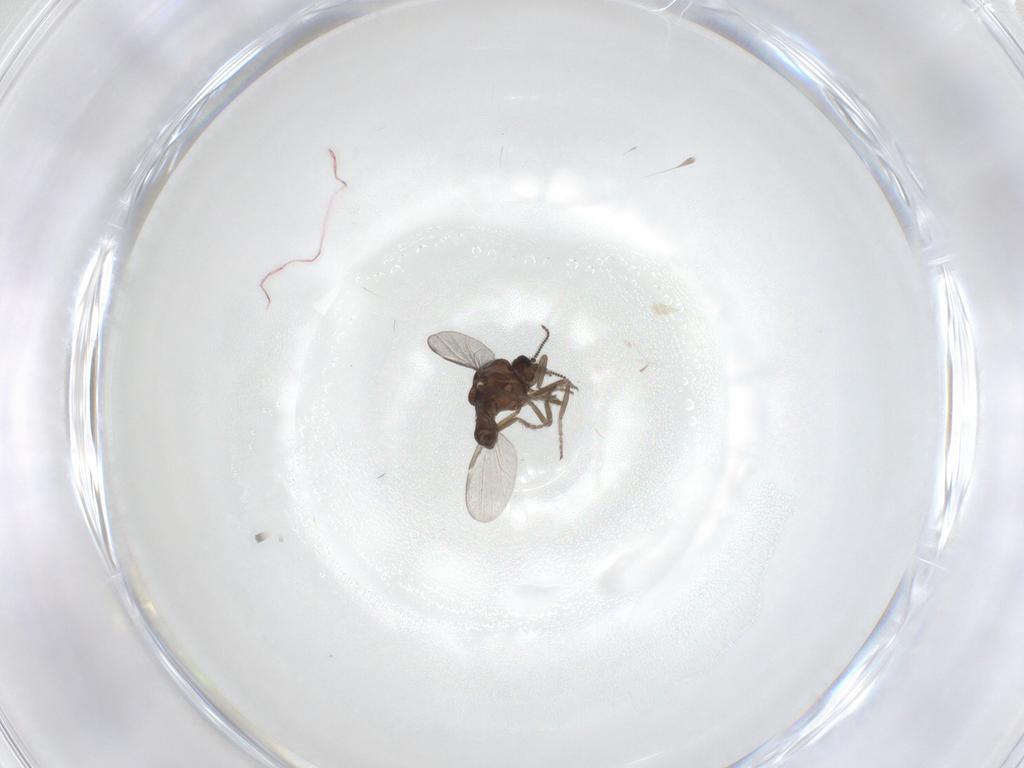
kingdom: Animalia
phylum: Arthropoda
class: Insecta
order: Diptera
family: Ceratopogonidae
